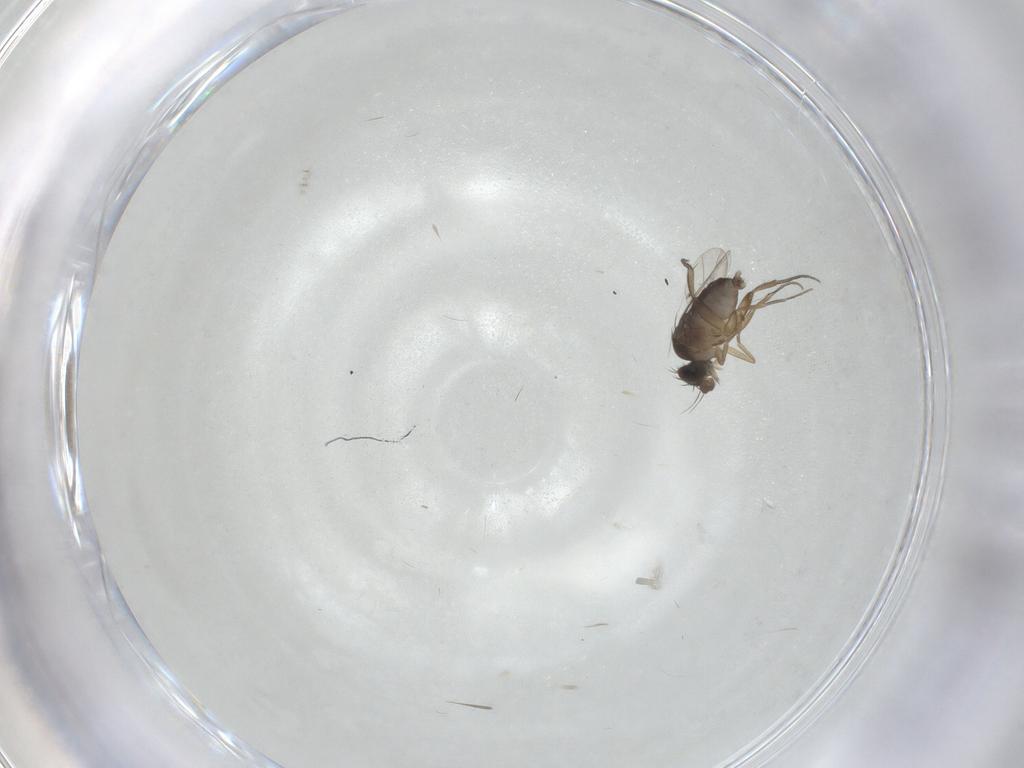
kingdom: Animalia
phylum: Arthropoda
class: Insecta
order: Diptera
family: Phoridae
